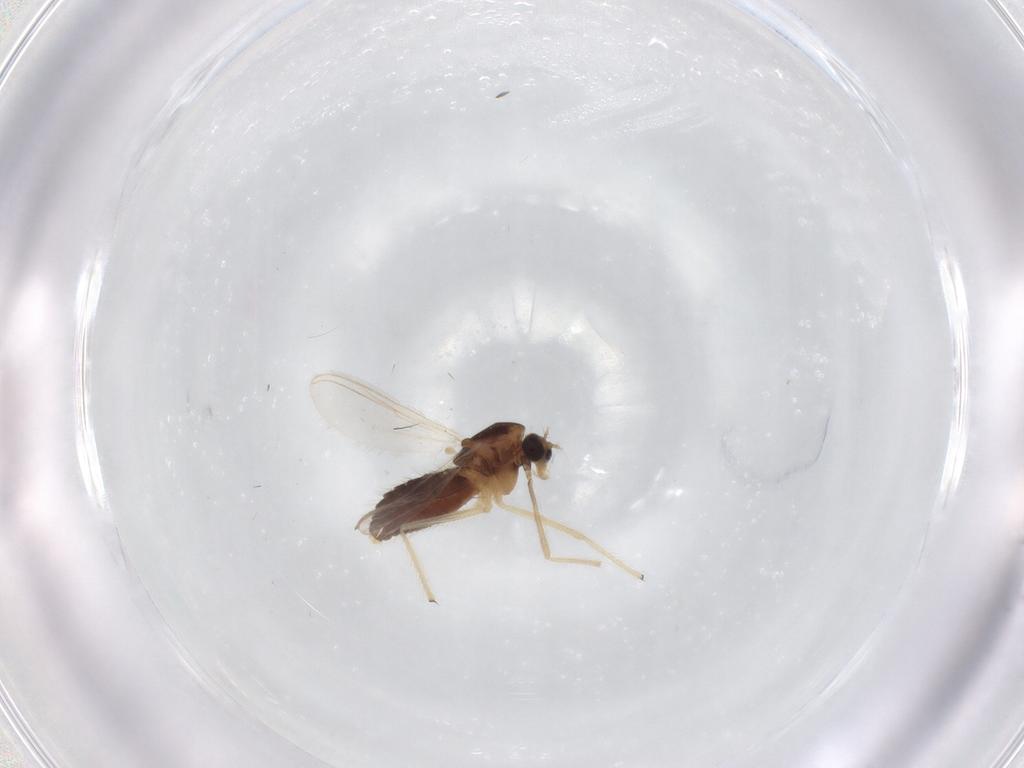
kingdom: Animalia
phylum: Arthropoda
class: Insecta
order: Diptera
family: Chironomidae
